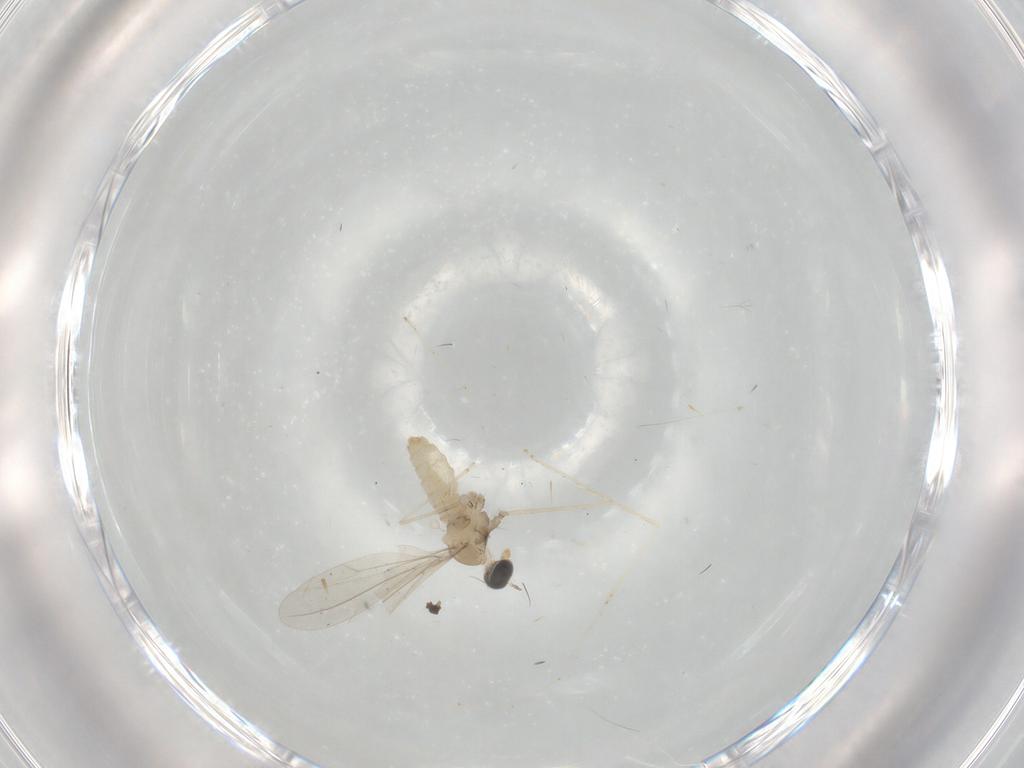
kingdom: Animalia
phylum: Arthropoda
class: Insecta
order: Diptera
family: Cecidomyiidae
